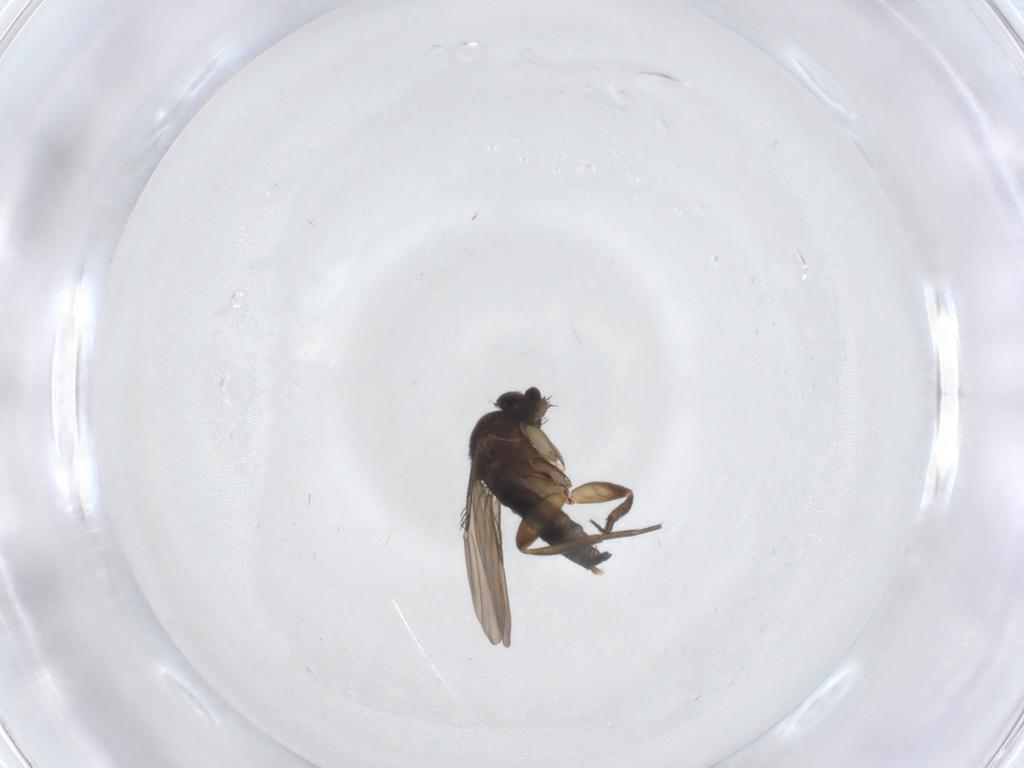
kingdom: Animalia
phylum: Arthropoda
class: Insecta
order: Diptera
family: Phoridae
